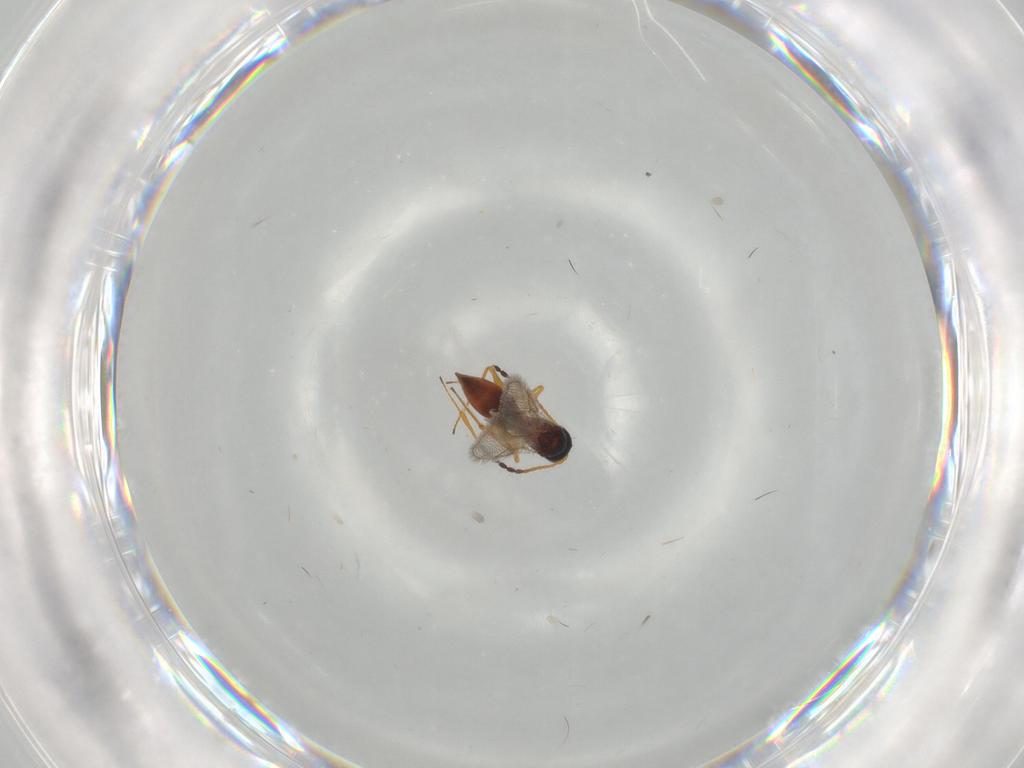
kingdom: Animalia
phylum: Arthropoda
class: Insecta
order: Hymenoptera
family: Figitidae
